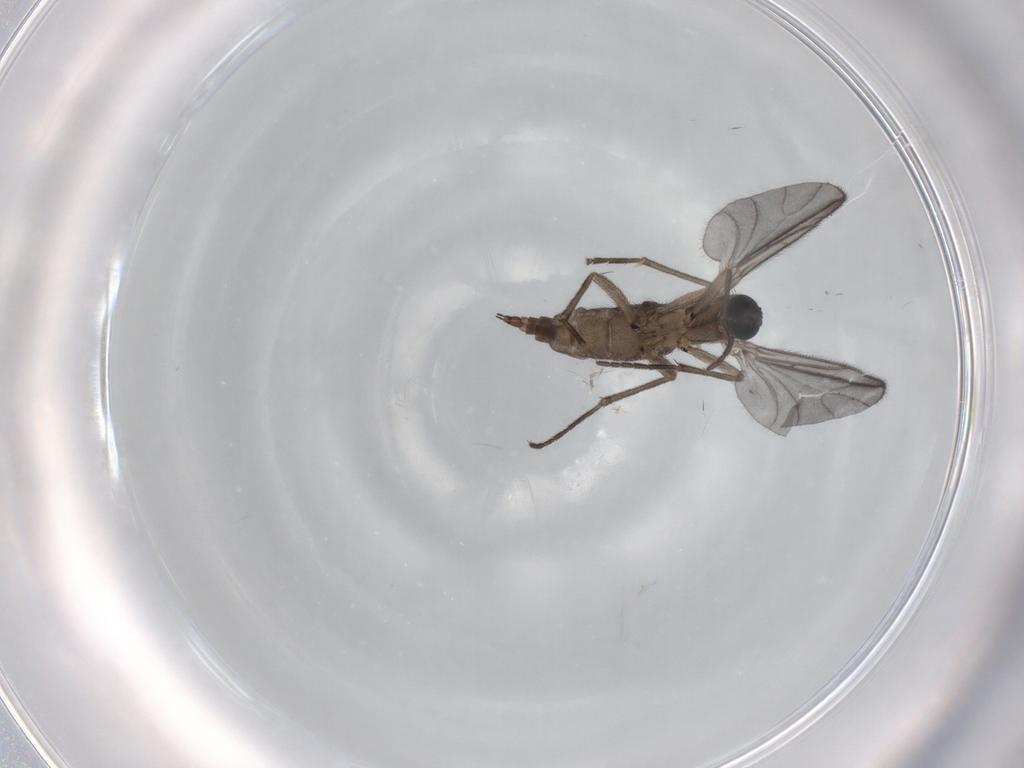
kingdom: Animalia
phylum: Arthropoda
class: Insecta
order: Diptera
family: Sciaridae
